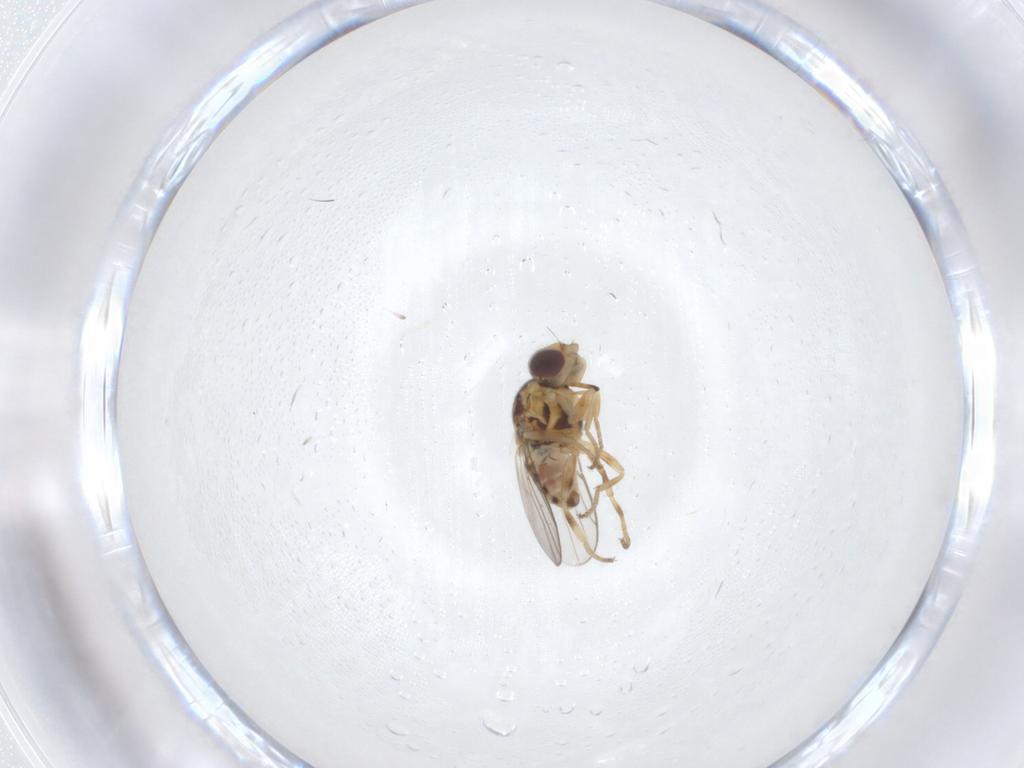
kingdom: Animalia
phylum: Arthropoda
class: Insecta
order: Diptera
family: Chloropidae
